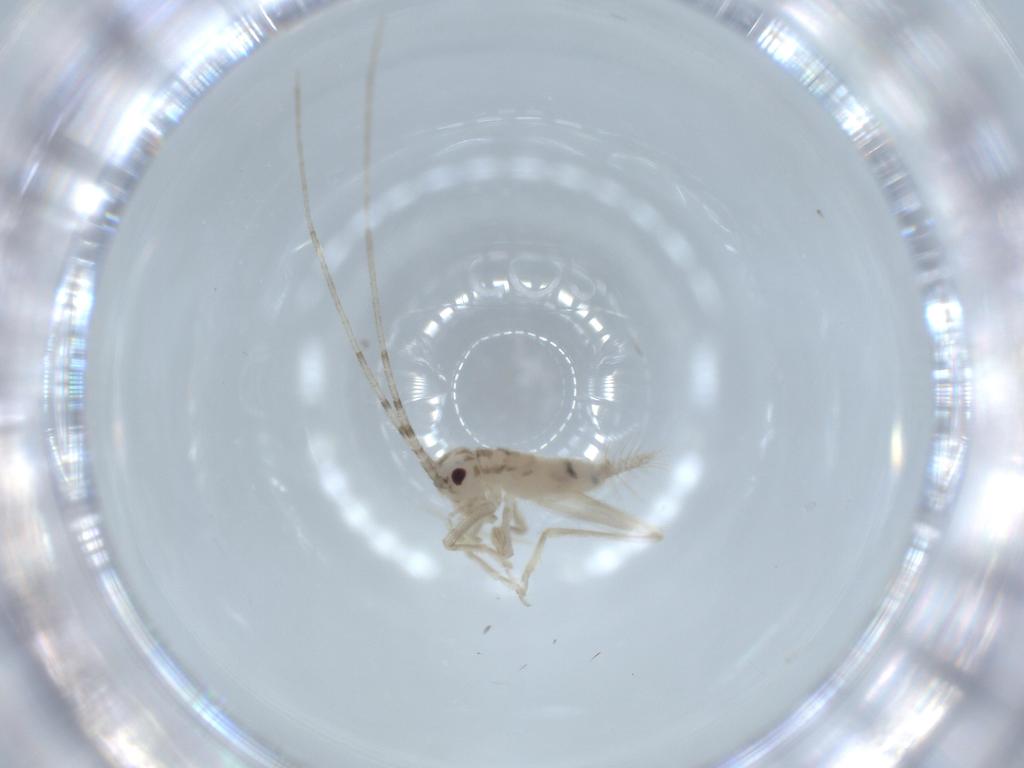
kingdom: Animalia
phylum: Arthropoda
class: Insecta
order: Orthoptera
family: Trigonidiidae
